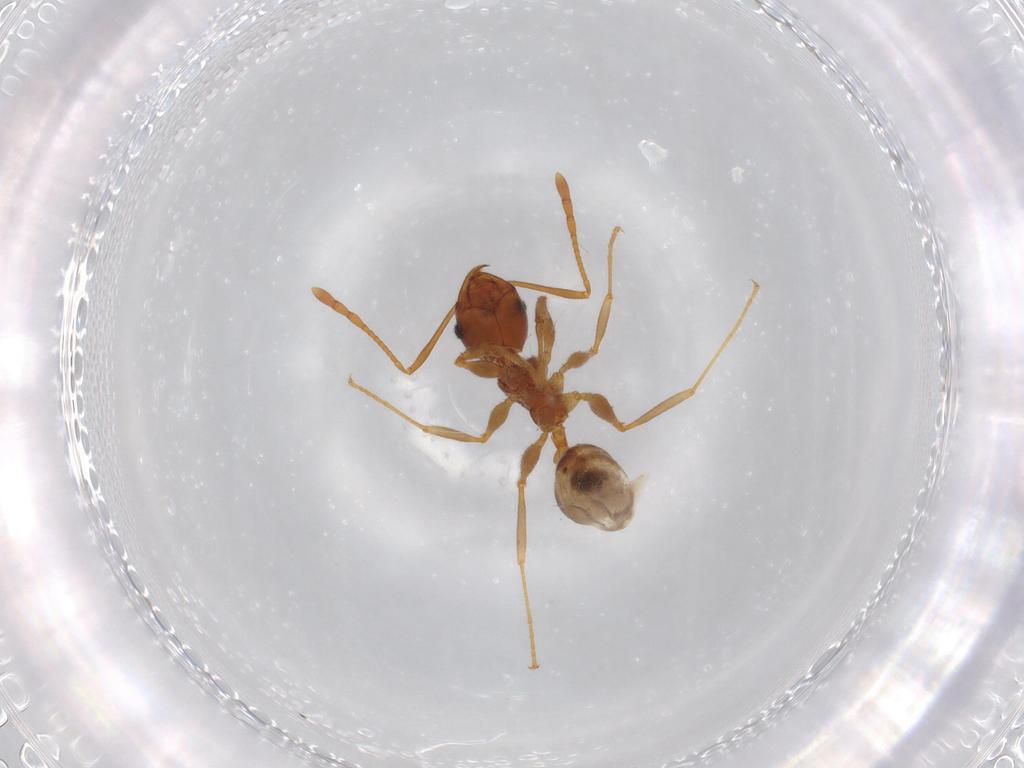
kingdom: Animalia
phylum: Arthropoda
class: Insecta
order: Hymenoptera
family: Formicidae
